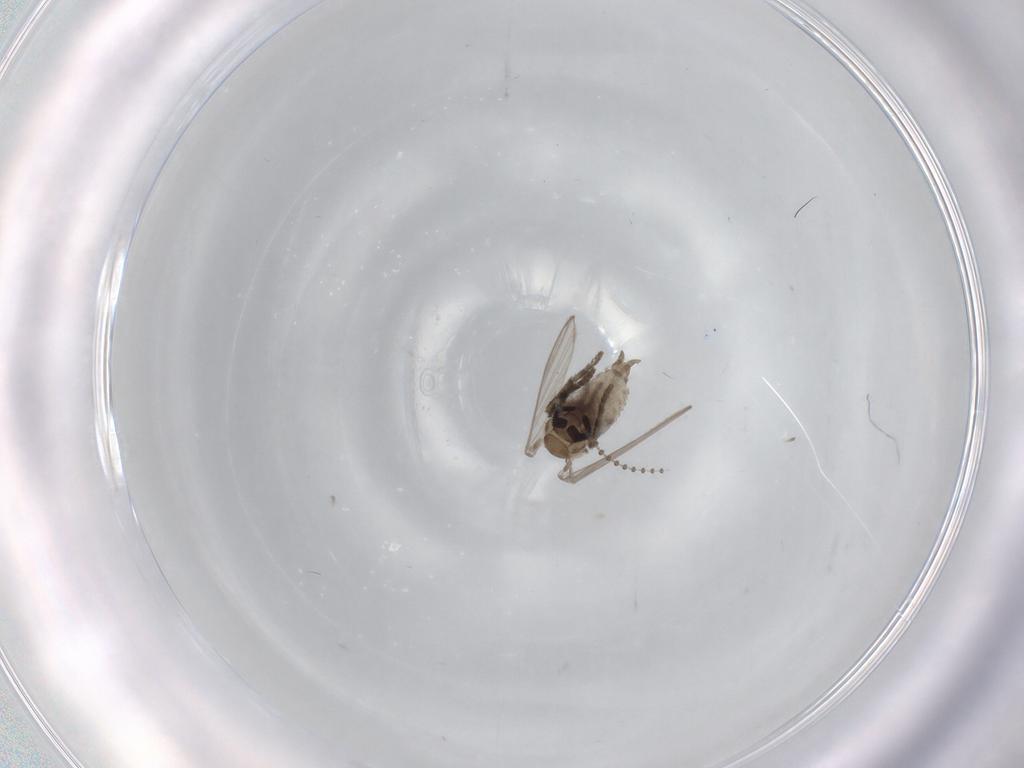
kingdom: Animalia
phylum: Arthropoda
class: Insecta
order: Diptera
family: Psychodidae
